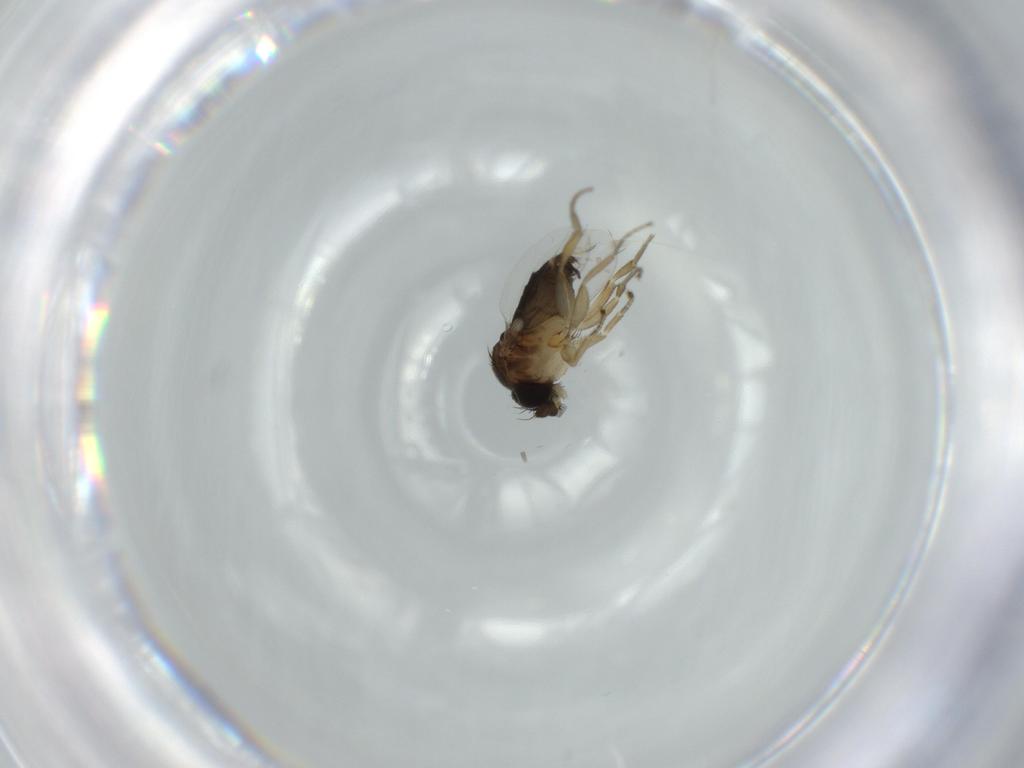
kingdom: Animalia
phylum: Arthropoda
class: Insecta
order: Diptera
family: Phoridae
